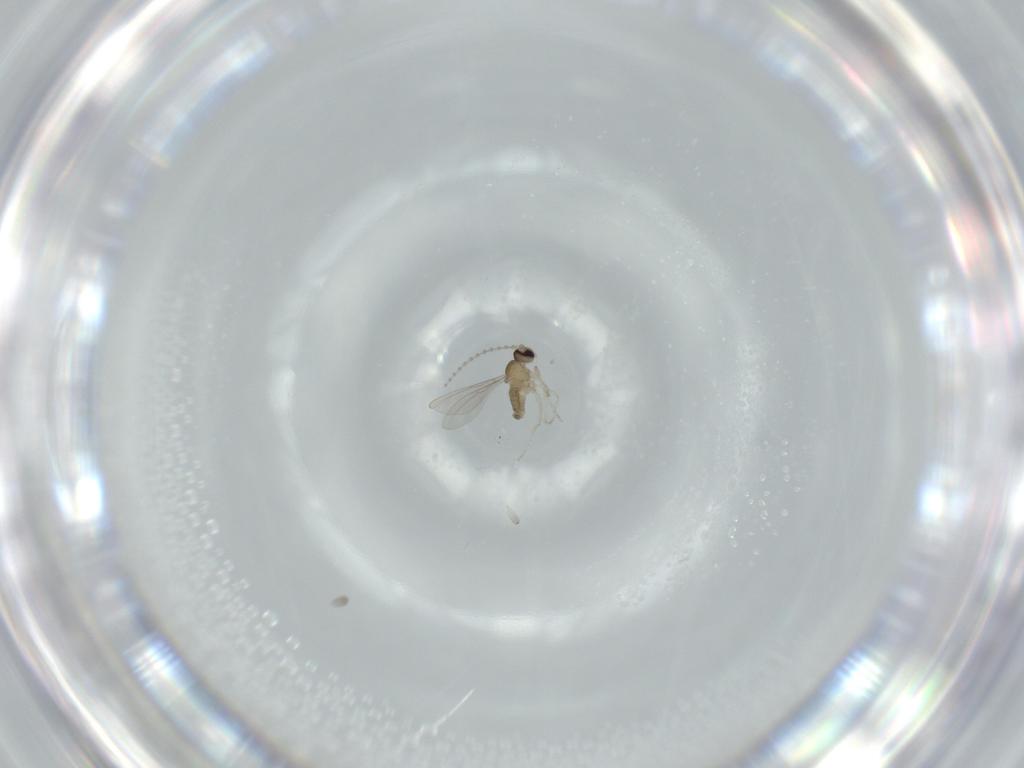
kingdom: Animalia
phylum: Arthropoda
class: Insecta
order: Diptera
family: Cecidomyiidae
